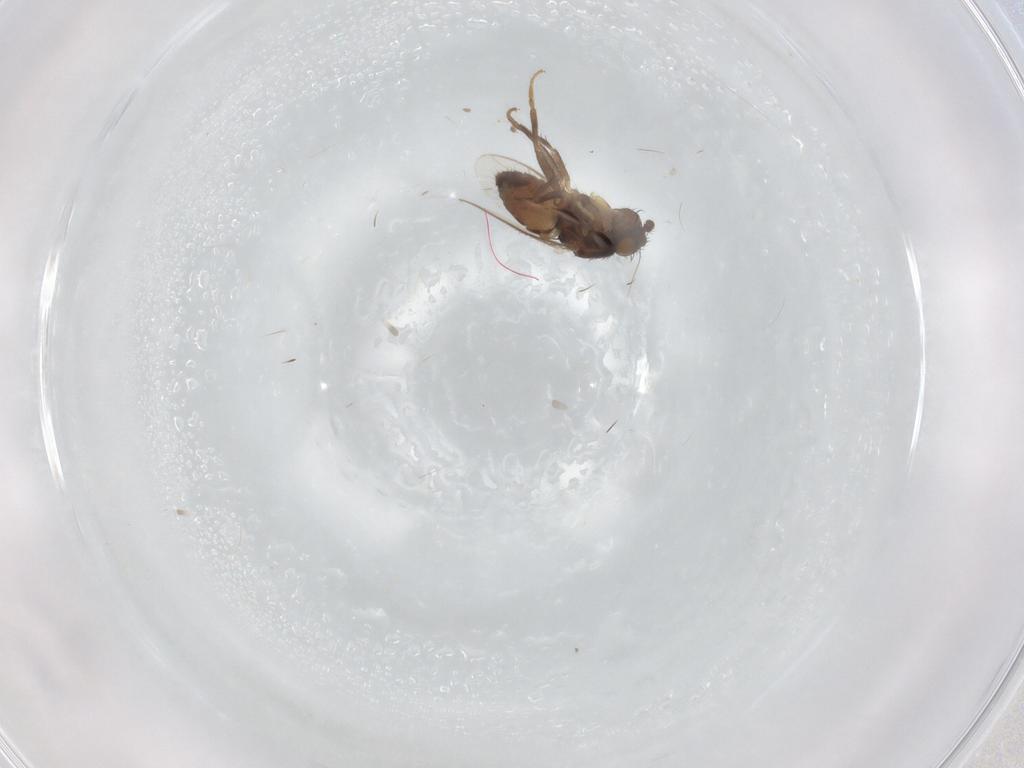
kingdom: Animalia
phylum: Arthropoda
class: Insecta
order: Diptera
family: Sphaeroceridae
